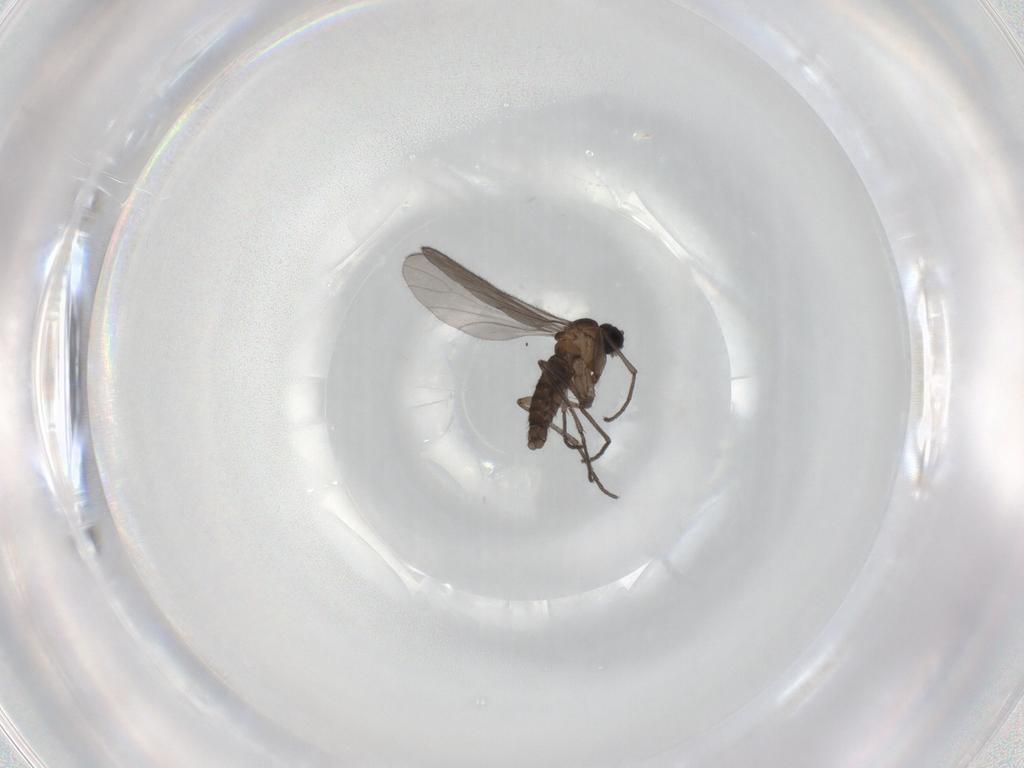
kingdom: Animalia
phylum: Arthropoda
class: Insecta
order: Diptera
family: Sciaridae
